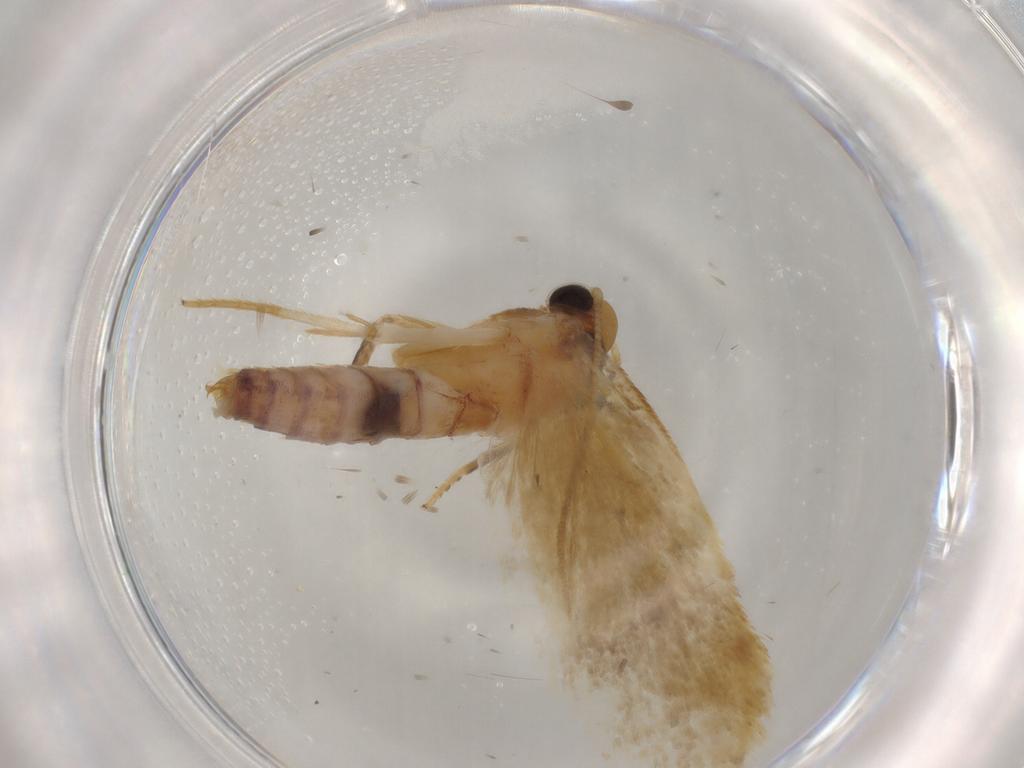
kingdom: Animalia
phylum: Arthropoda
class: Insecta
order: Lepidoptera
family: Depressariidae
